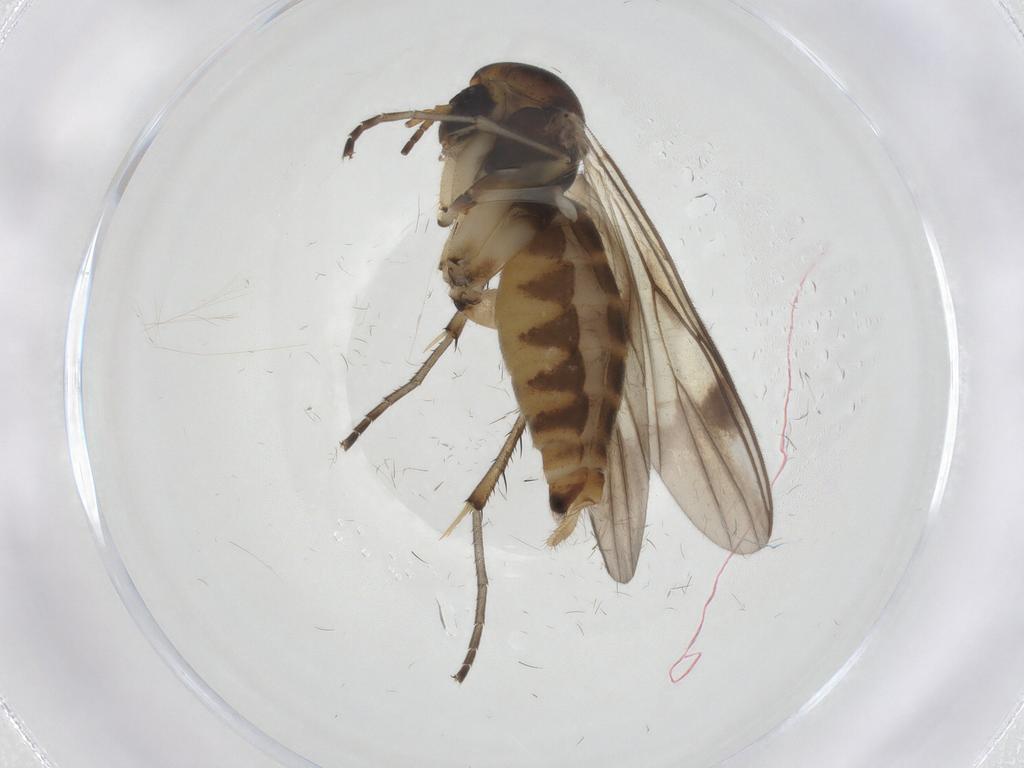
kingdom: Animalia
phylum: Arthropoda
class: Insecta
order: Diptera
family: Mycetophilidae
